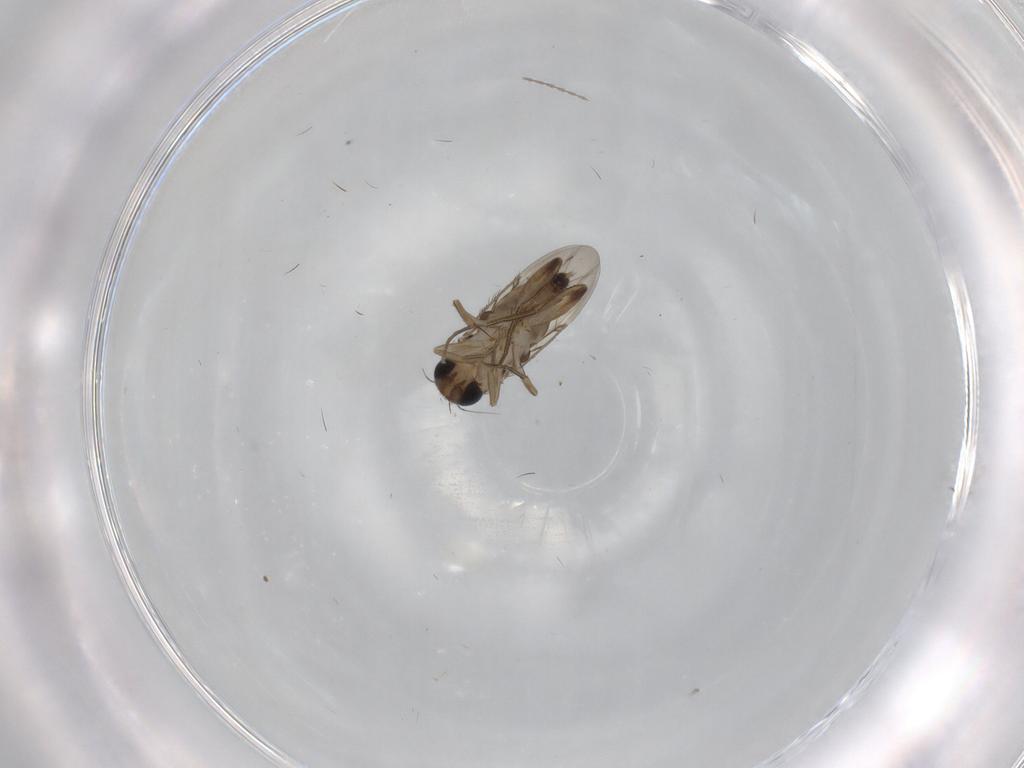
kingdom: Animalia
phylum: Arthropoda
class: Insecta
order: Diptera
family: Phoridae
